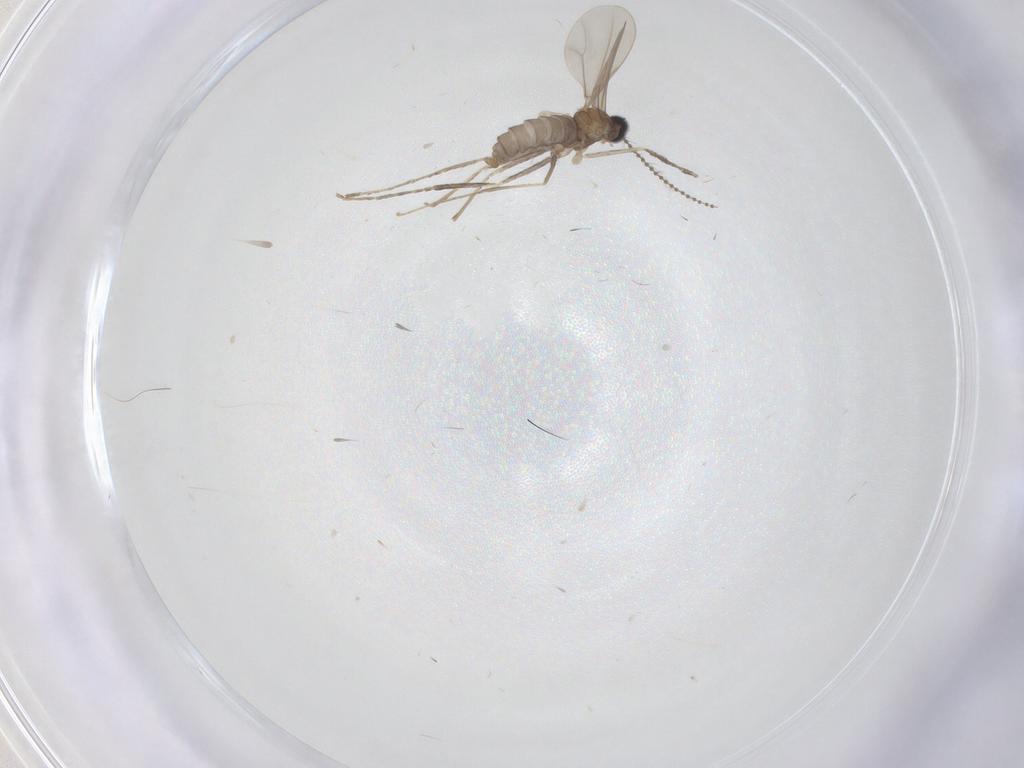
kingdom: Animalia
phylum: Arthropoda
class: Insecta
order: Diptera
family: Cecidomyiidae
